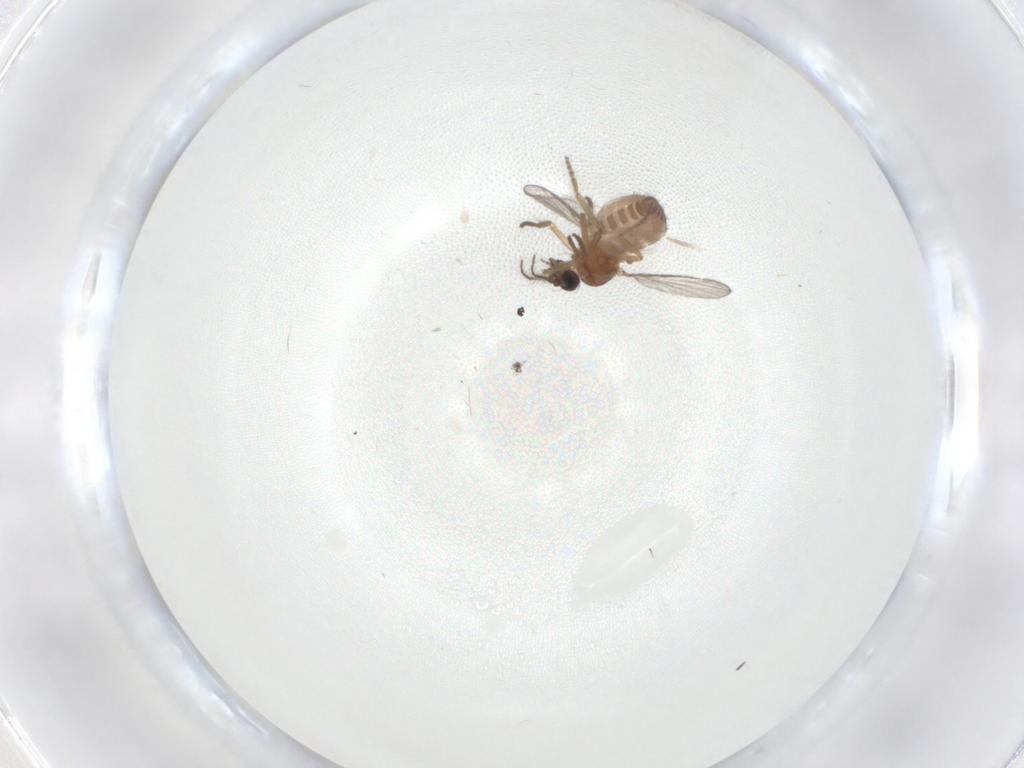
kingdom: Animalia
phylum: Arthropoda
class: Insecta
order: Diptera
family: Ceratopogonidae
